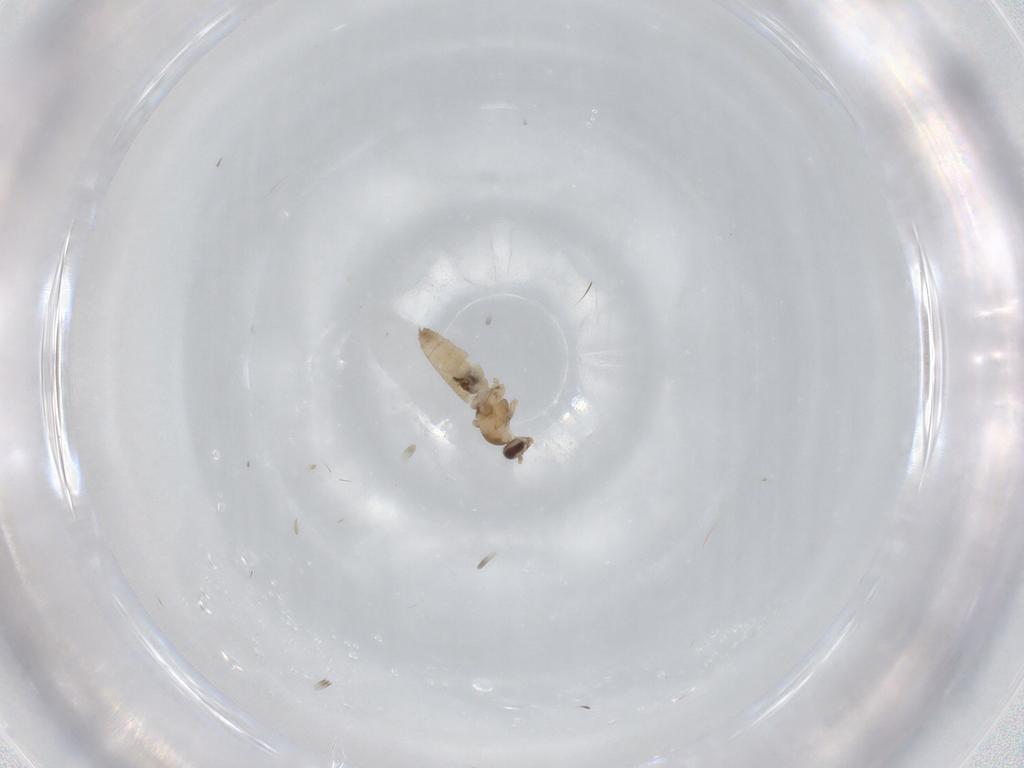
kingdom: Animalia
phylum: Arthropoda
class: Insecta
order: Diptera
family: Cecidomyiidae
